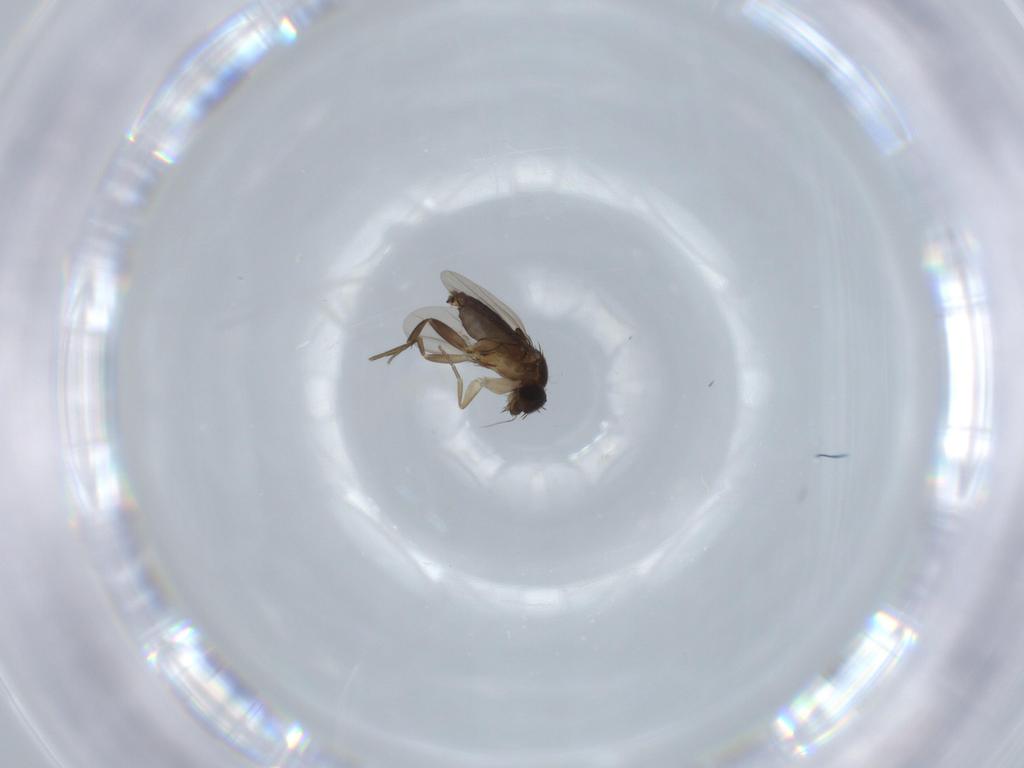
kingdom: Animalia
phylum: Arthropoda
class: Insecta
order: Diptera
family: Phoridae
